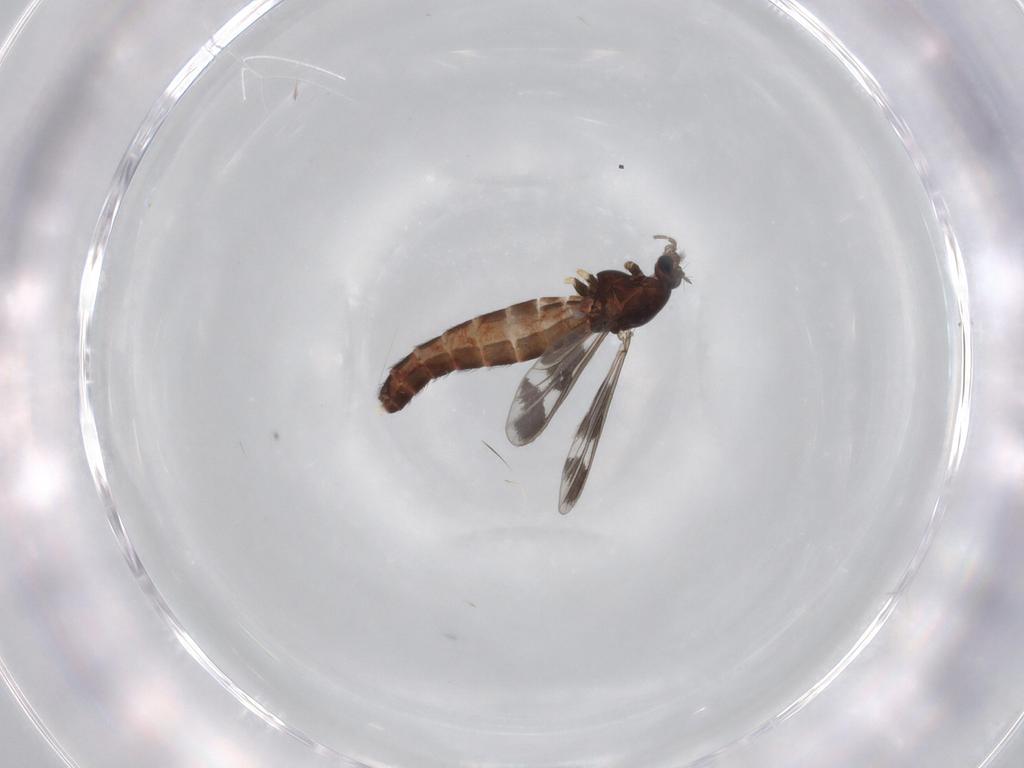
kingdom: Animalia
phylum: Arthropoda
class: Insecta
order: Diptera
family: Chironomidae
